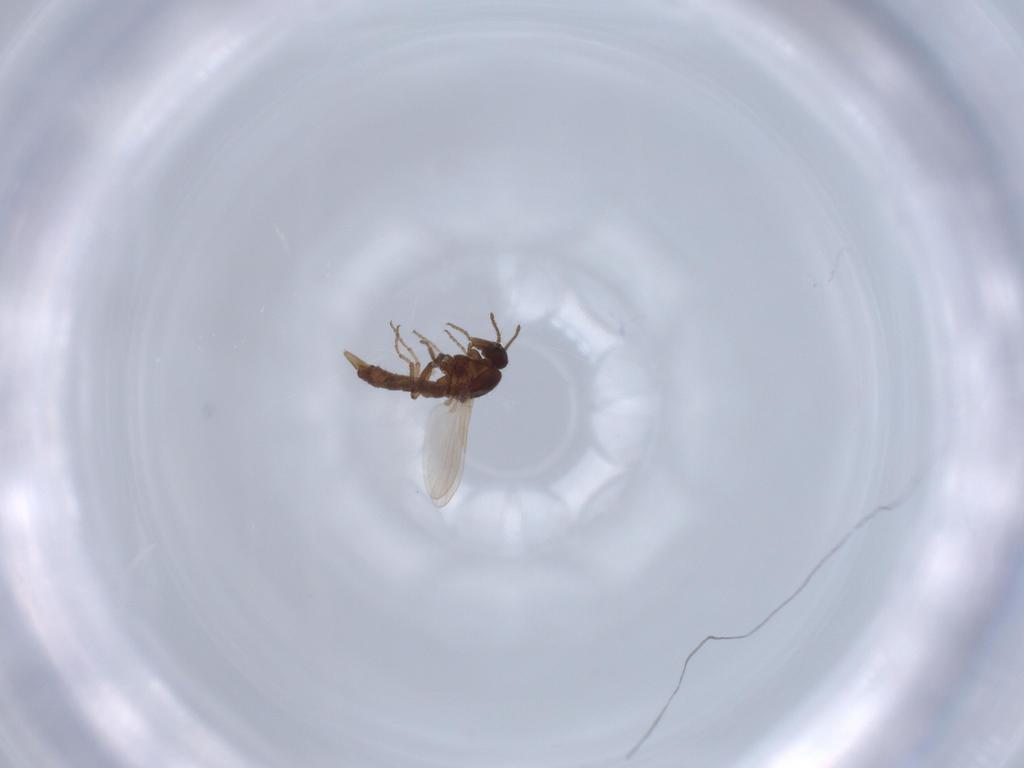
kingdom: Animalia
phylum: Arthropoda
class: Insecta
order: Diptera
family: Cecidomyiidae
